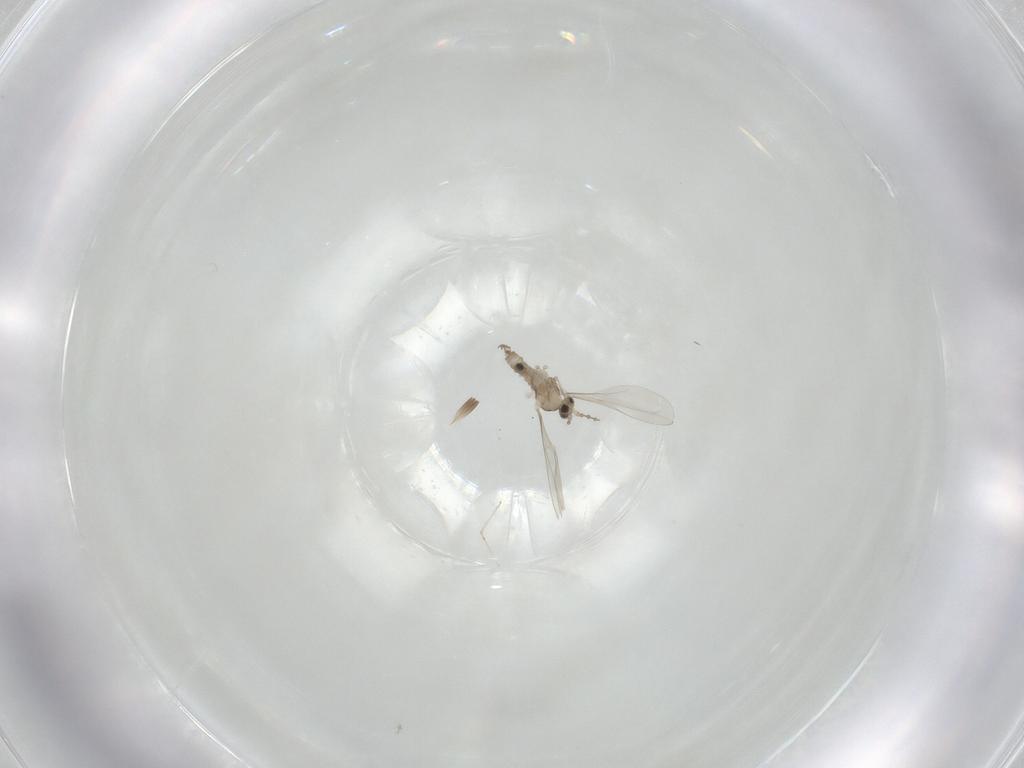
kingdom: Animalia
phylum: Arthropoda
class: Insecta
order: Diptera
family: Cecidomyiidae
